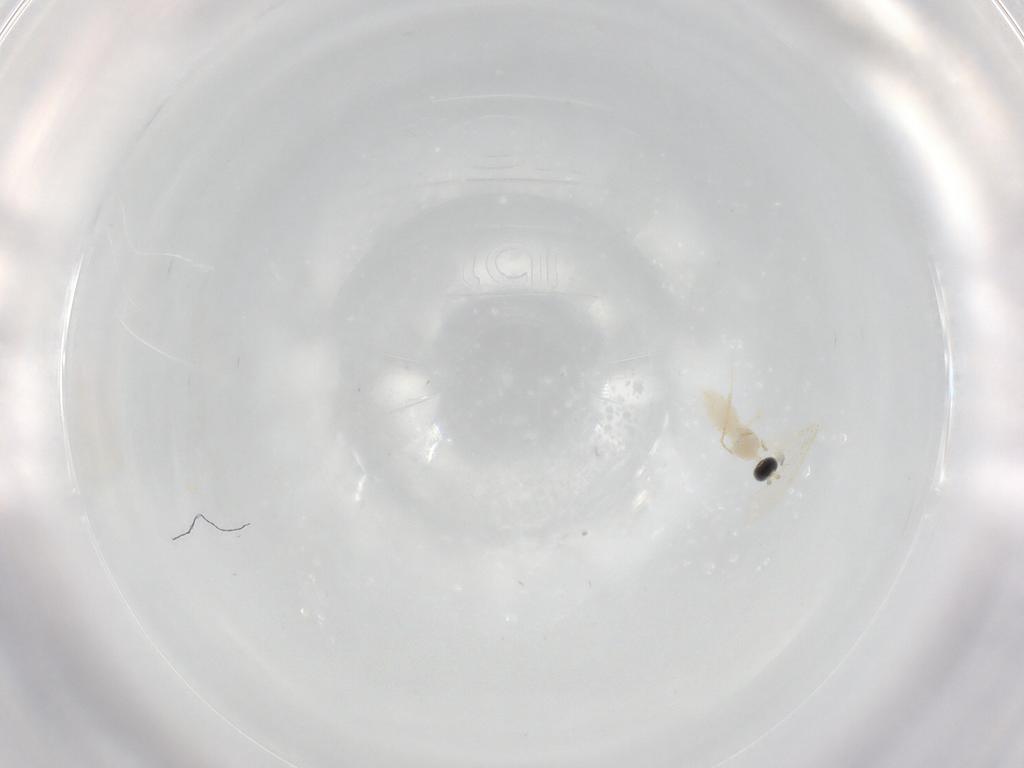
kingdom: Animalia
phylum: Arthropoda
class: Insecta
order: Diptera
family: Cecidomyiidae
